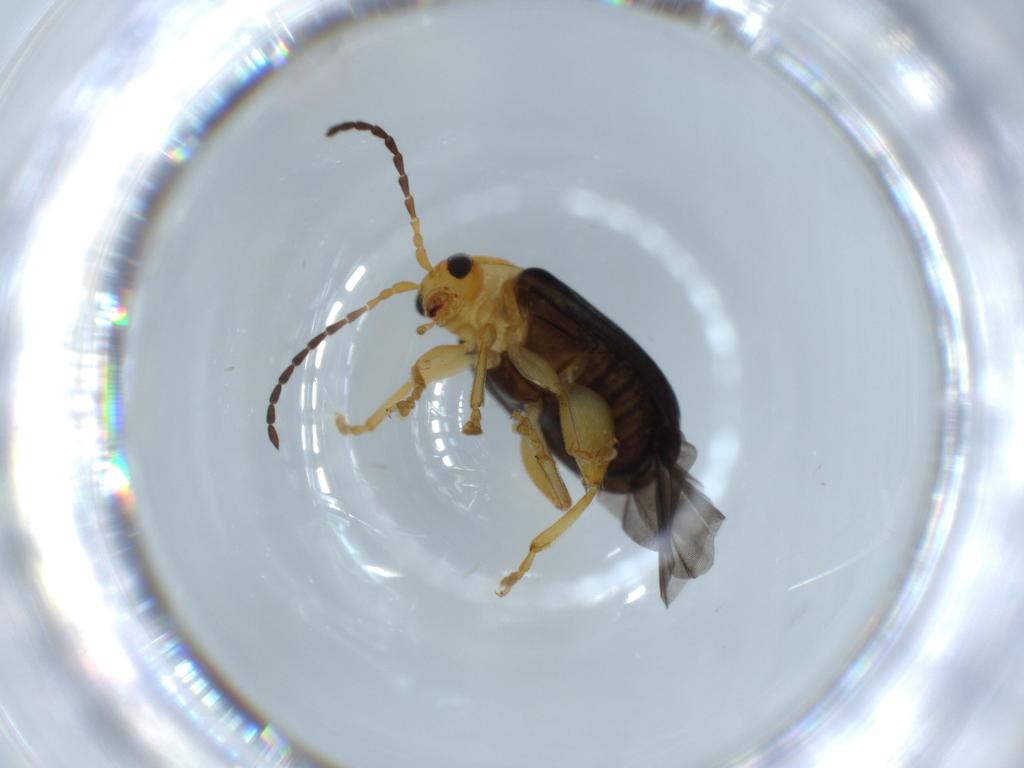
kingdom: Animalia
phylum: Arthropoda
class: Insecta
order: Coleoptera
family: Chrysomelidae
